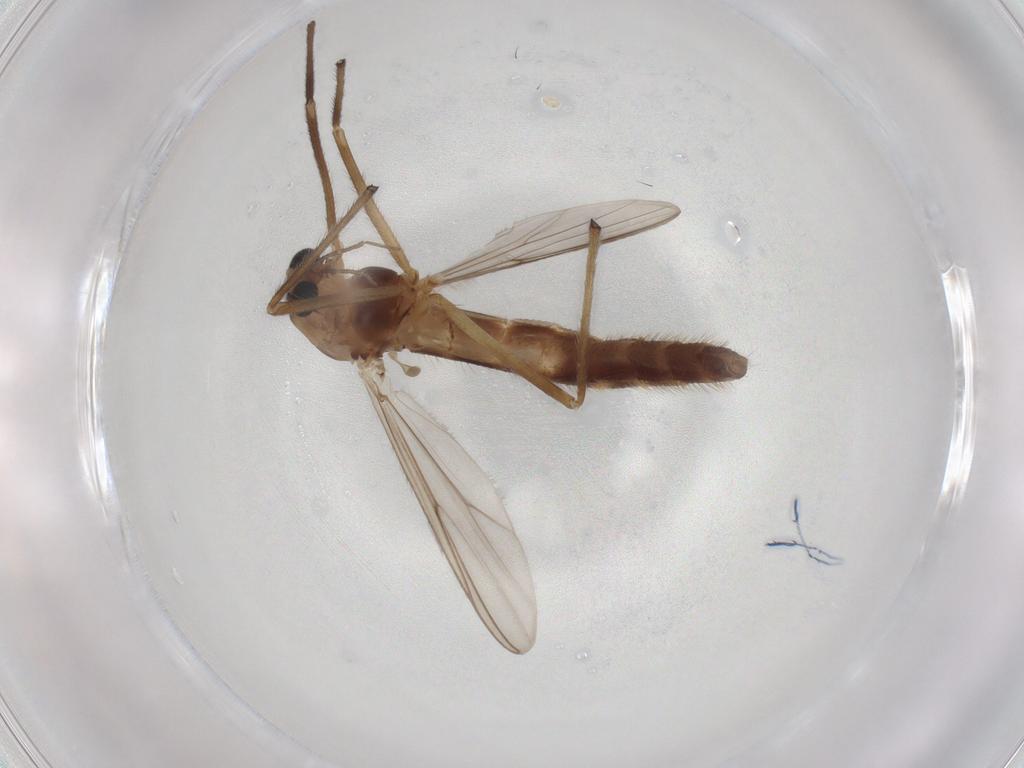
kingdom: Animalia
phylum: Arthropoda
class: Insecta
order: Diptera
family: Chironomidae
